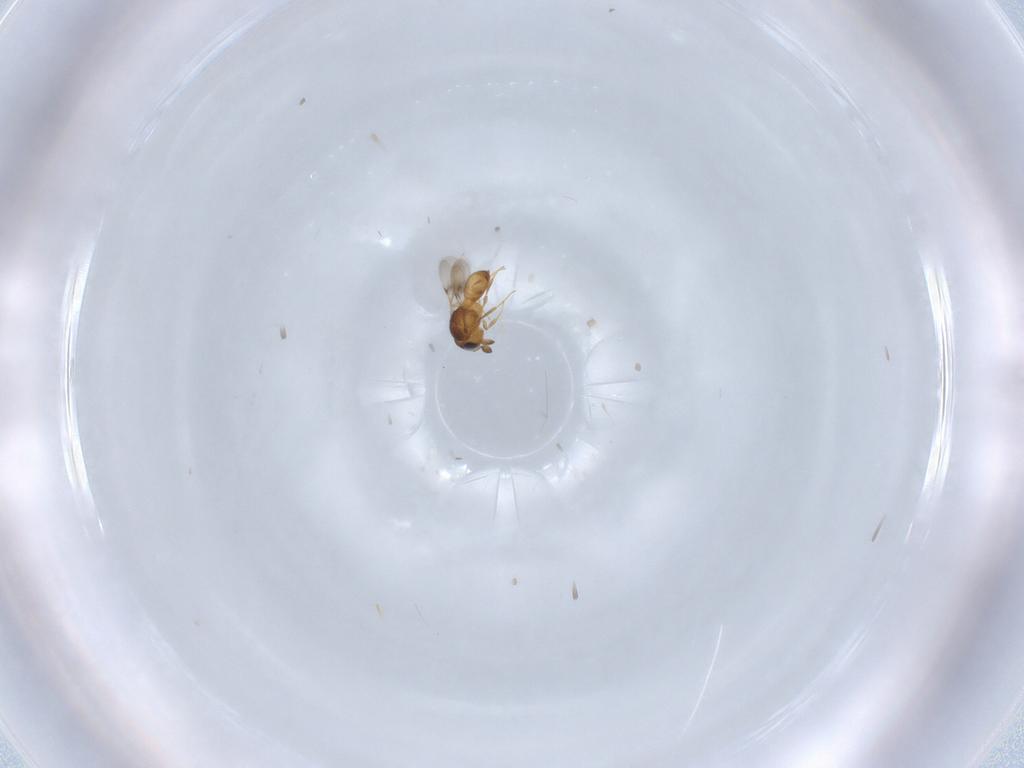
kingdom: Animalia
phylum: Arthropoda
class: Insecta
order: Hymenoptera
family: Scelionidae
